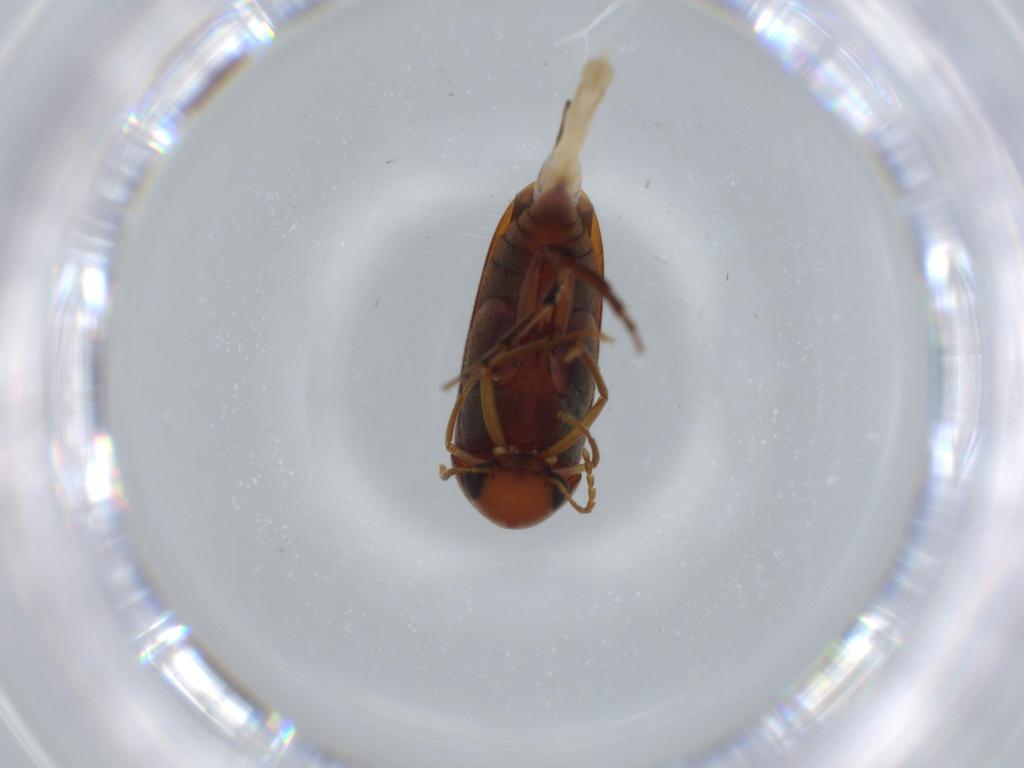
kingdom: Animalia
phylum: Arthropoda
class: Insecta
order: Coleoptera
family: Chrysomelidae
